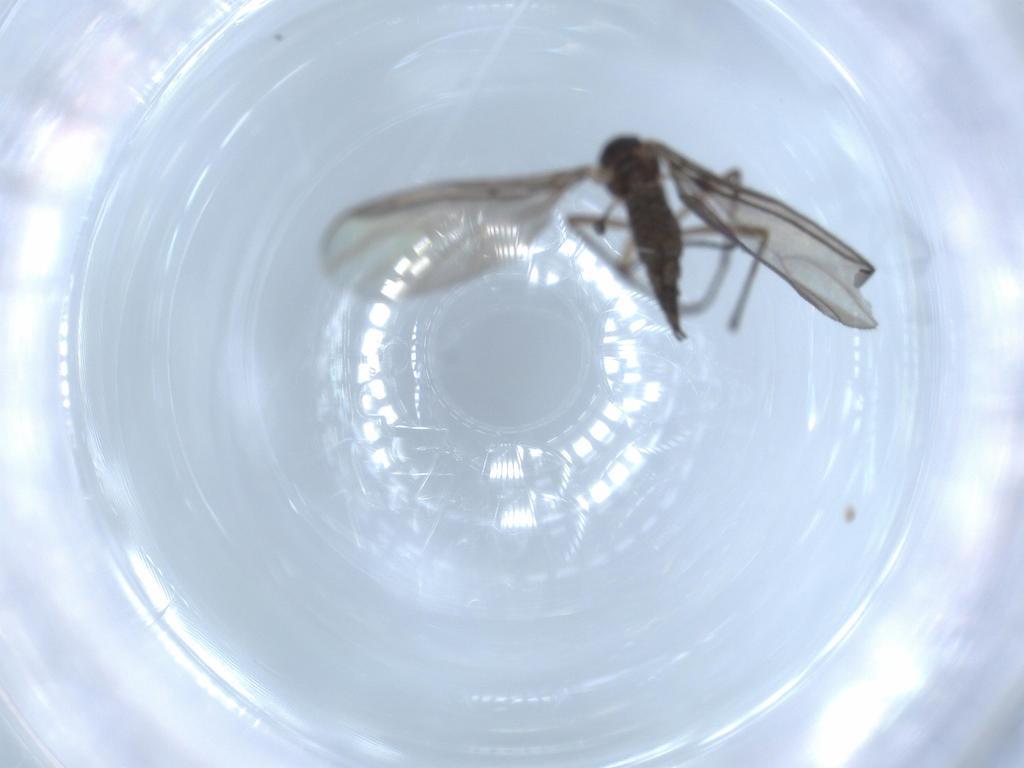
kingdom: Animalia
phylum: Arthropoda
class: Insecta
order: Diptera
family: Sciaridae
